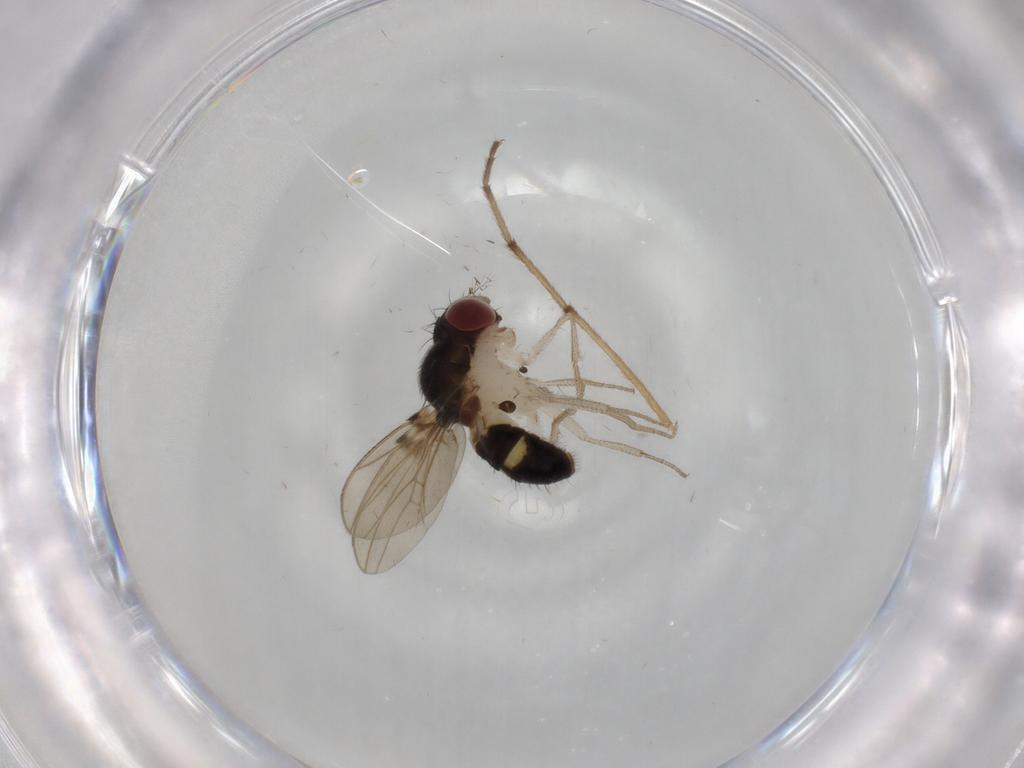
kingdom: Animalia
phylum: Arthropoda
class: Insecta
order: Diptera
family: Drosophilidae
